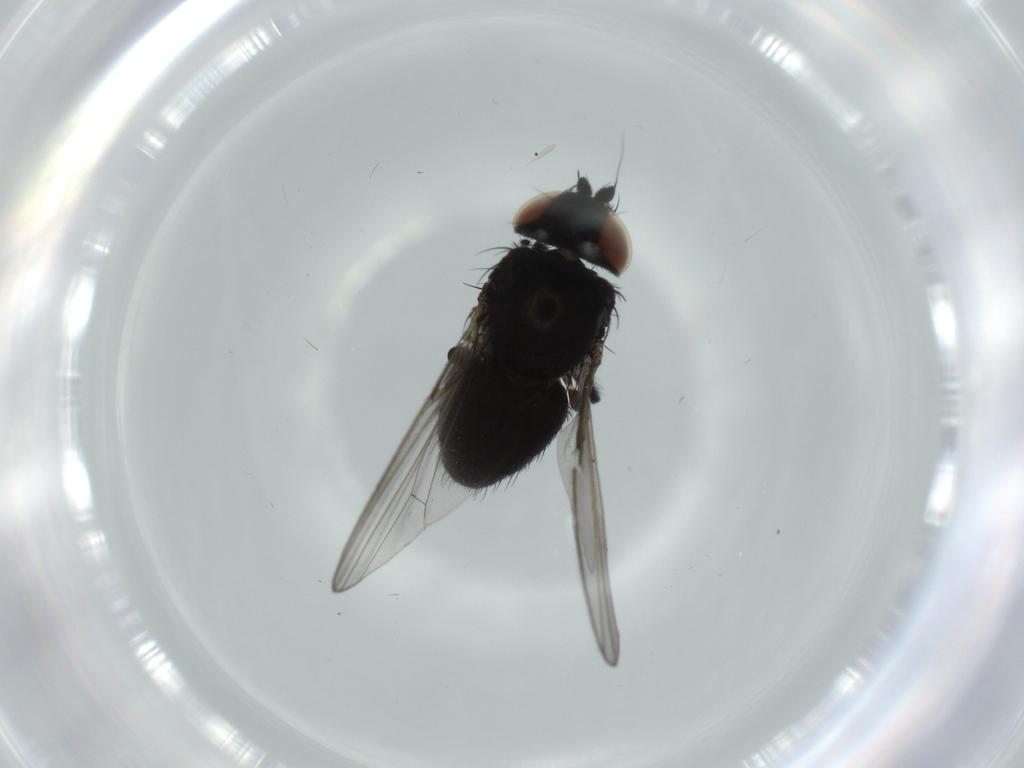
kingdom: Animalia
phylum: Arthropoda
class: Insecta
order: Diptera
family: Milichiidae
